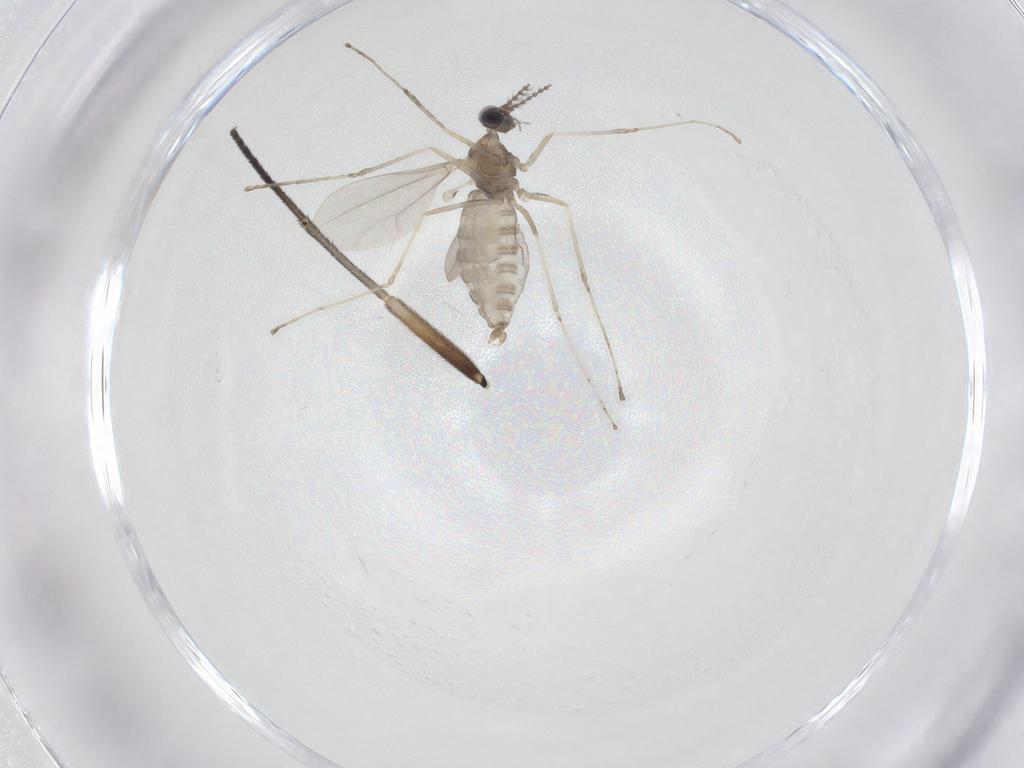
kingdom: Animalia
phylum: Arthropoda
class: Insecta
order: Diptera
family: Cecidomyiidae
